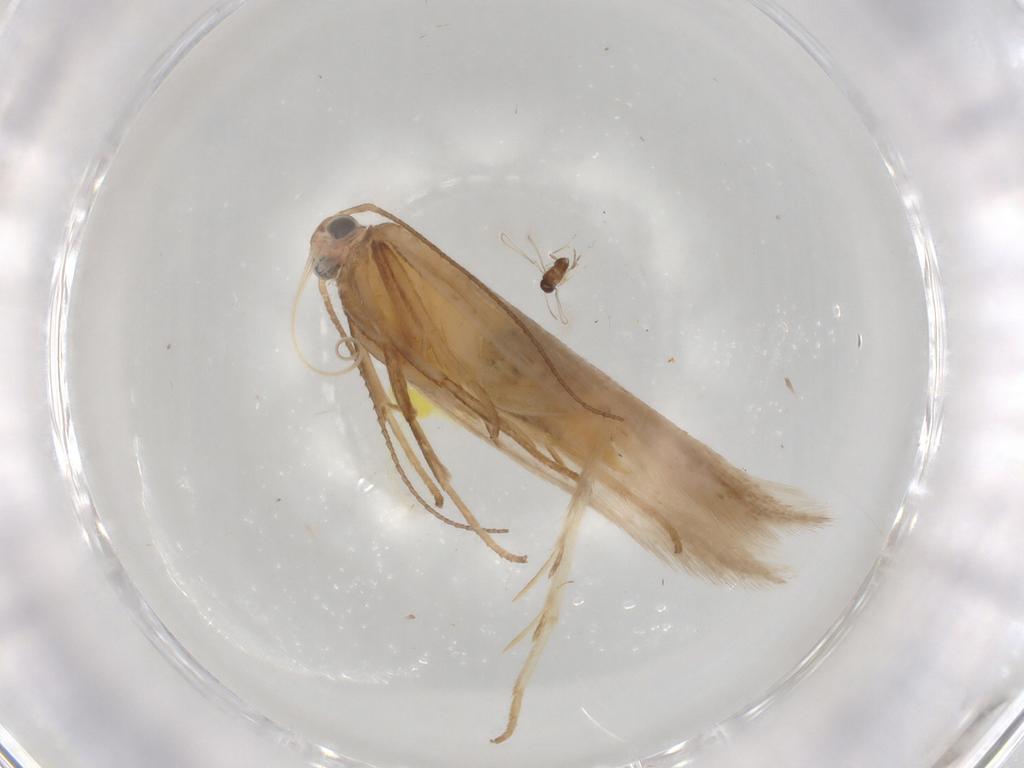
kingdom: Animalia
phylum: Arthropoda
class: Insecta
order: Lepidoptera
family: Gelechiidae
